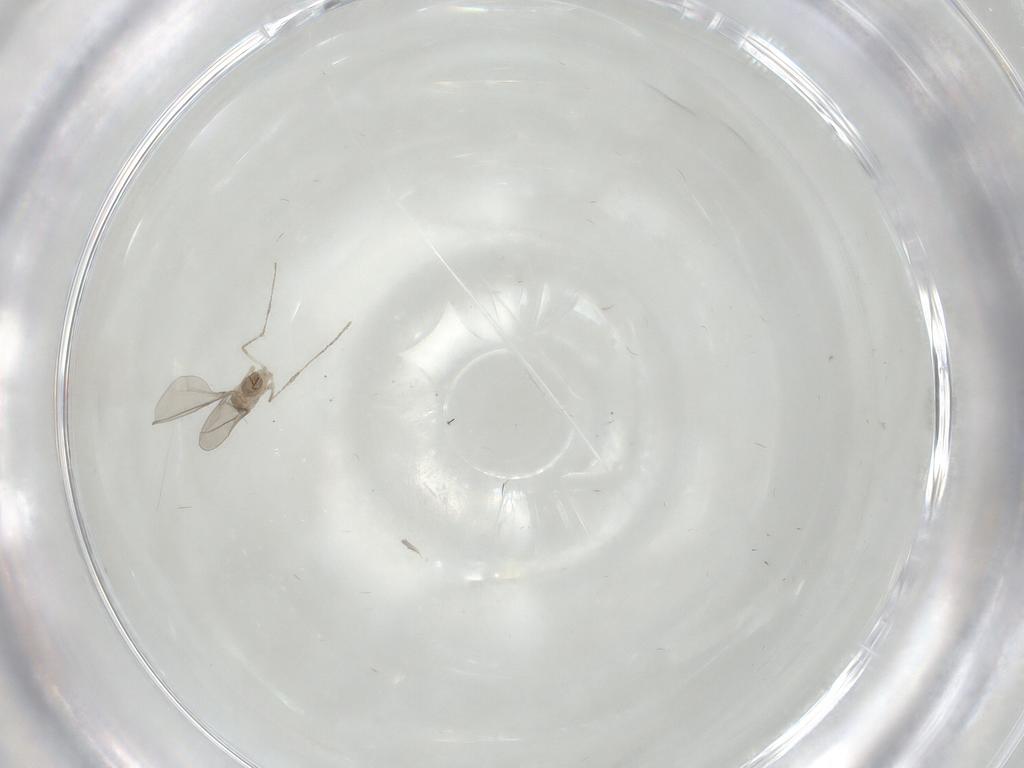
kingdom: Animalia
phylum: Arthropoda
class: Insecta
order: Diptera
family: Cecidomyiidae
